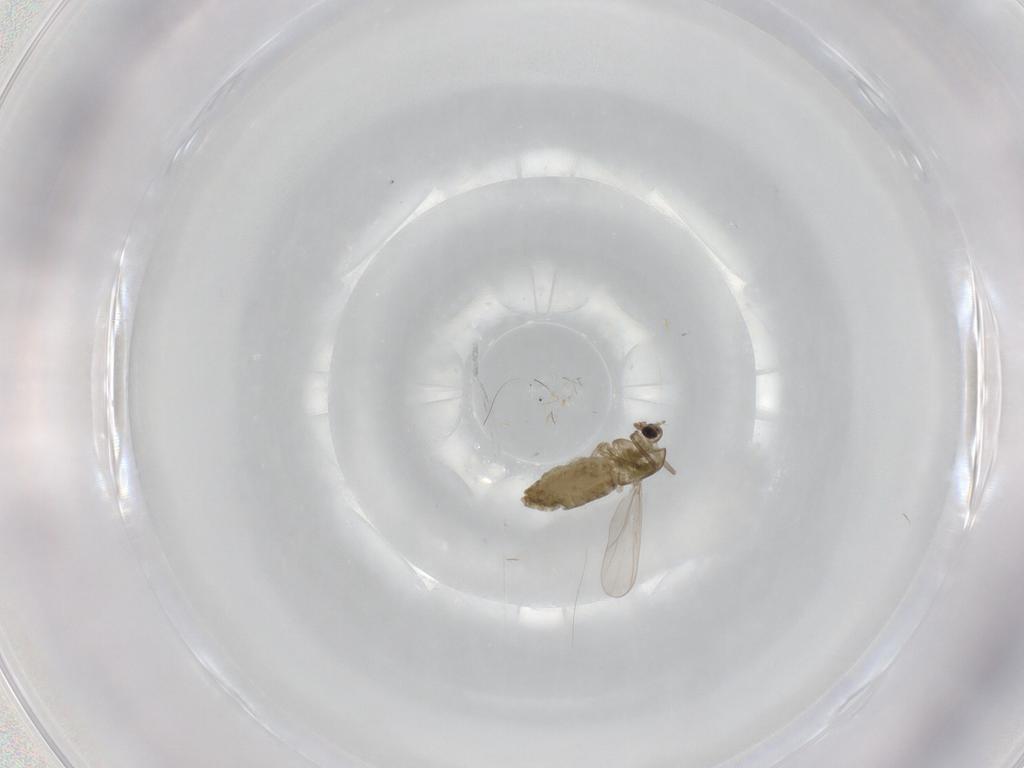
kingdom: Animalia
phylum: Arthropoda
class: Insecta
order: Diptera
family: Chironomidae
